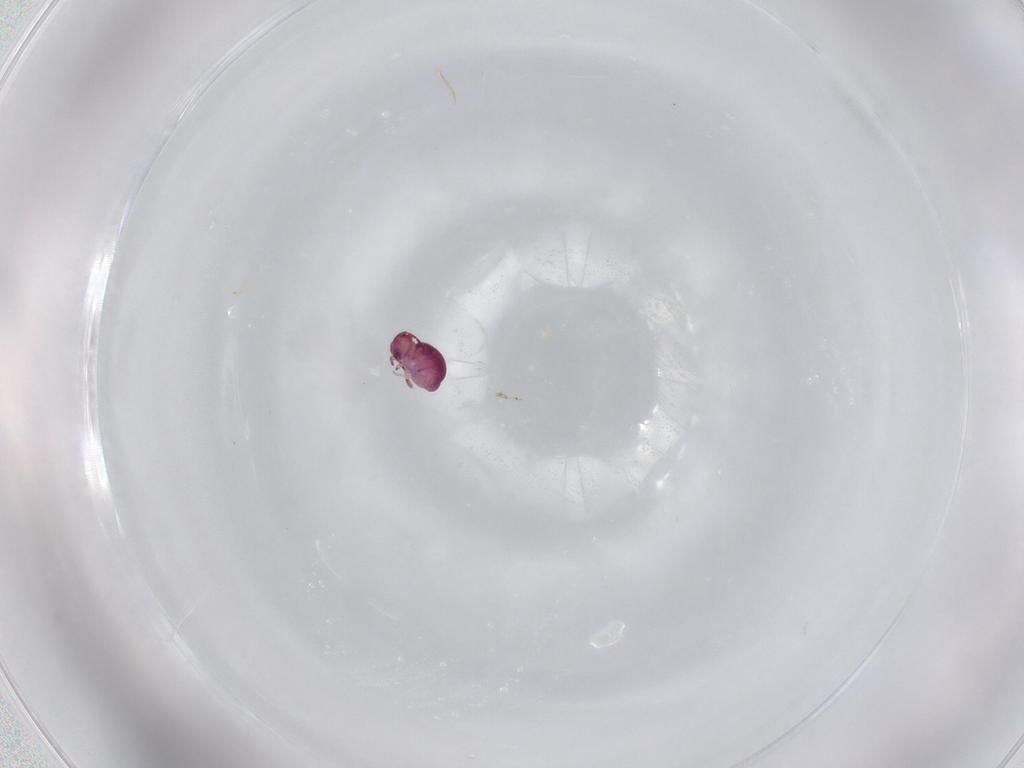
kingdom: Animalia
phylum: Arthropoda
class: Collembola
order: Symphypleona
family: Sminthurididae
